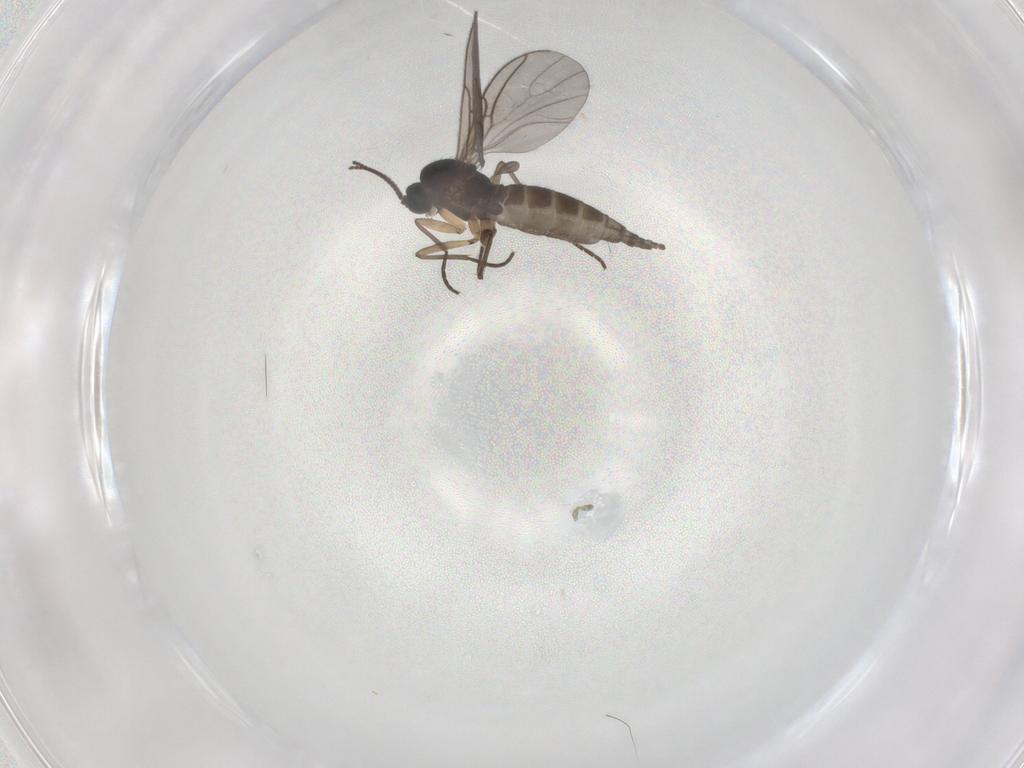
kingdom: Animalia
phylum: Arthropoda
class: Insecta
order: Diptera
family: Sciaridae
